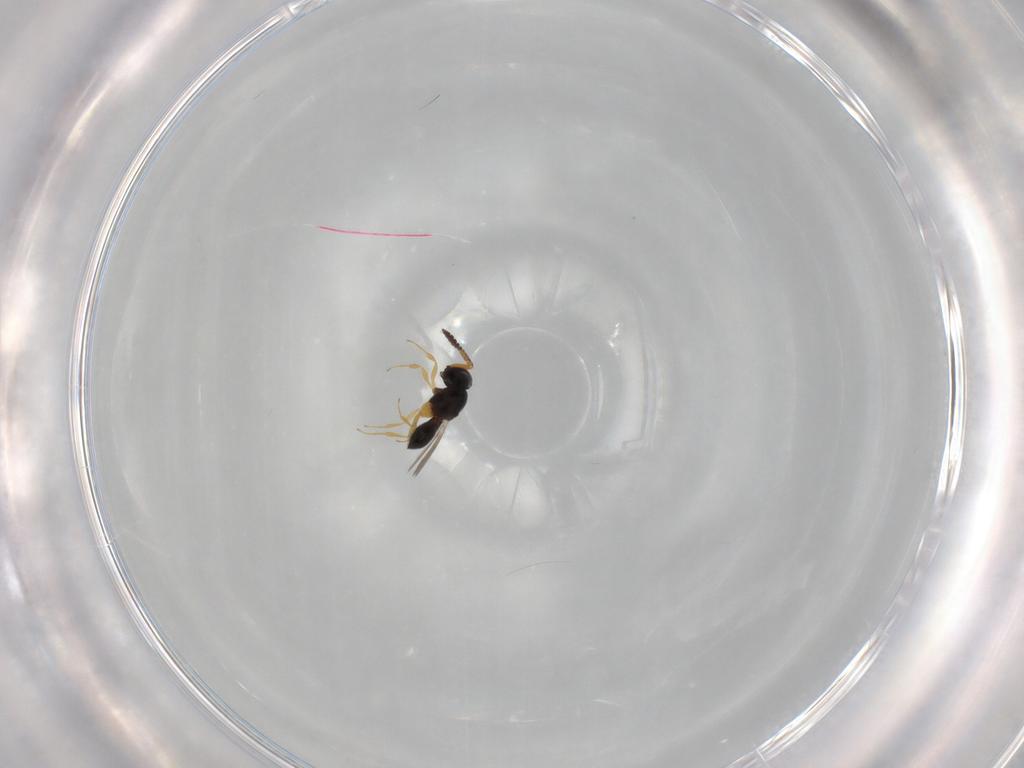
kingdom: Animalia
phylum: Arthropoda
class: Insecta
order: Hymenoptera
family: Scelionidae
